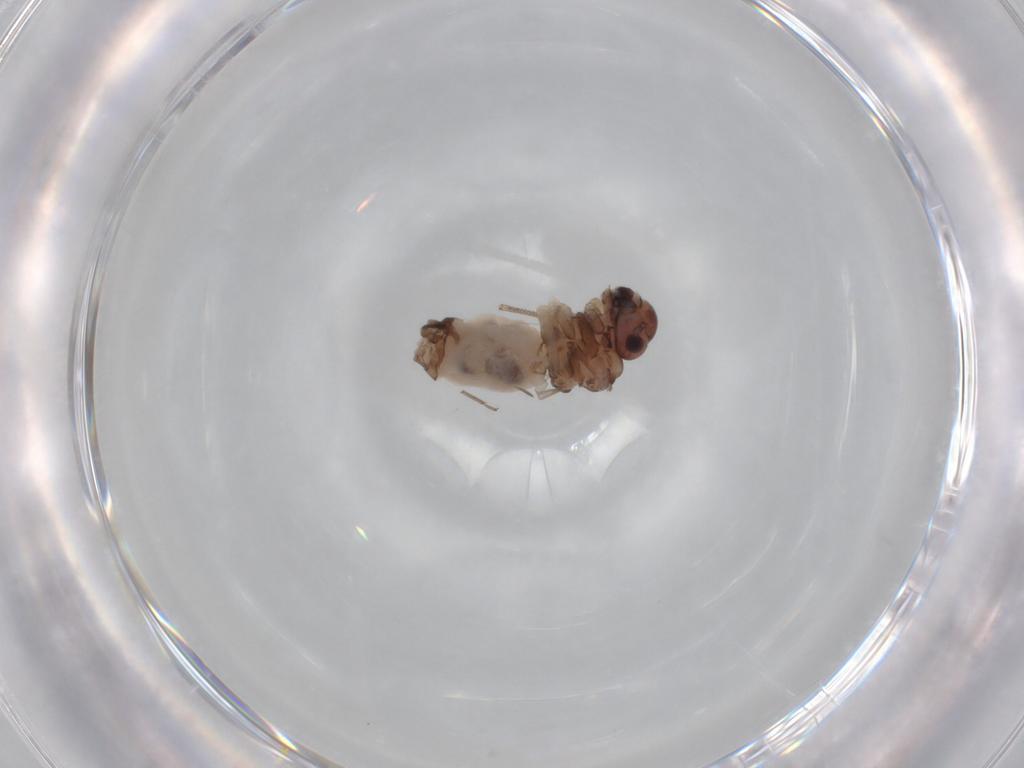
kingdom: Animalia
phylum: Arthropoda
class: Insecta
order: Psocodea
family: Peripsocidae
